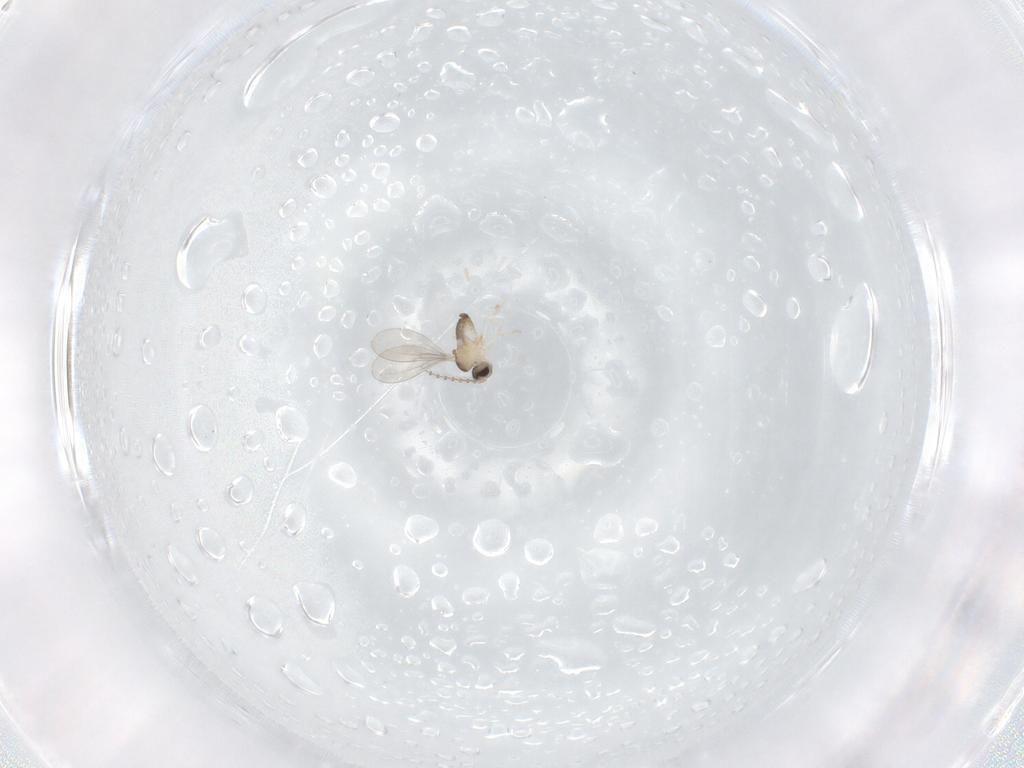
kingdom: Animalia
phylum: Arthropoda
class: Insecta
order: Diptera
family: Cecidomyiidae
